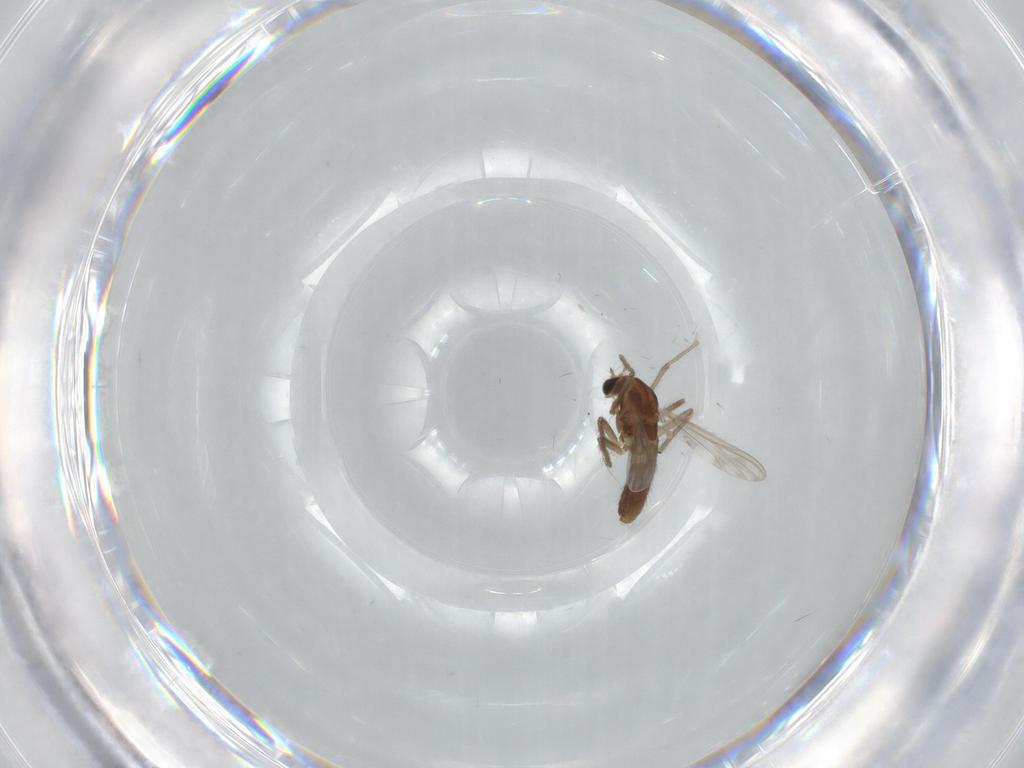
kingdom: Animalia
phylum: Arthropoda
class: Insecta
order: Diptera
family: Chironomidae
